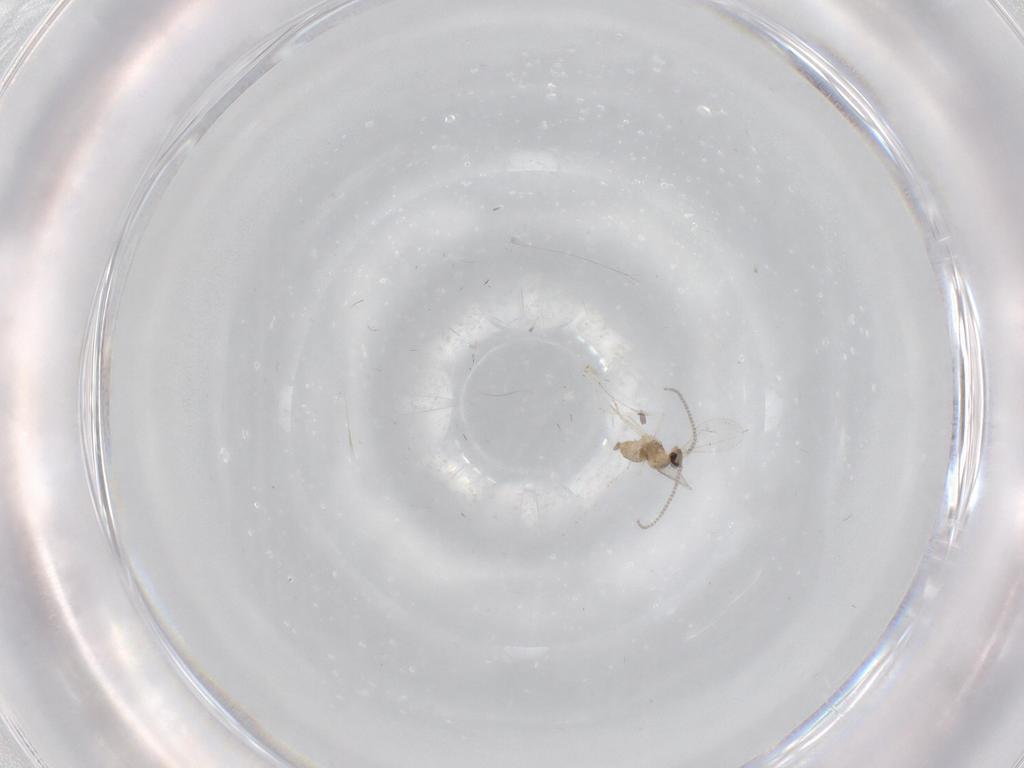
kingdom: Animalia
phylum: Arthropoda
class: Insecta
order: Diptera
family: Cecidomyiidae
